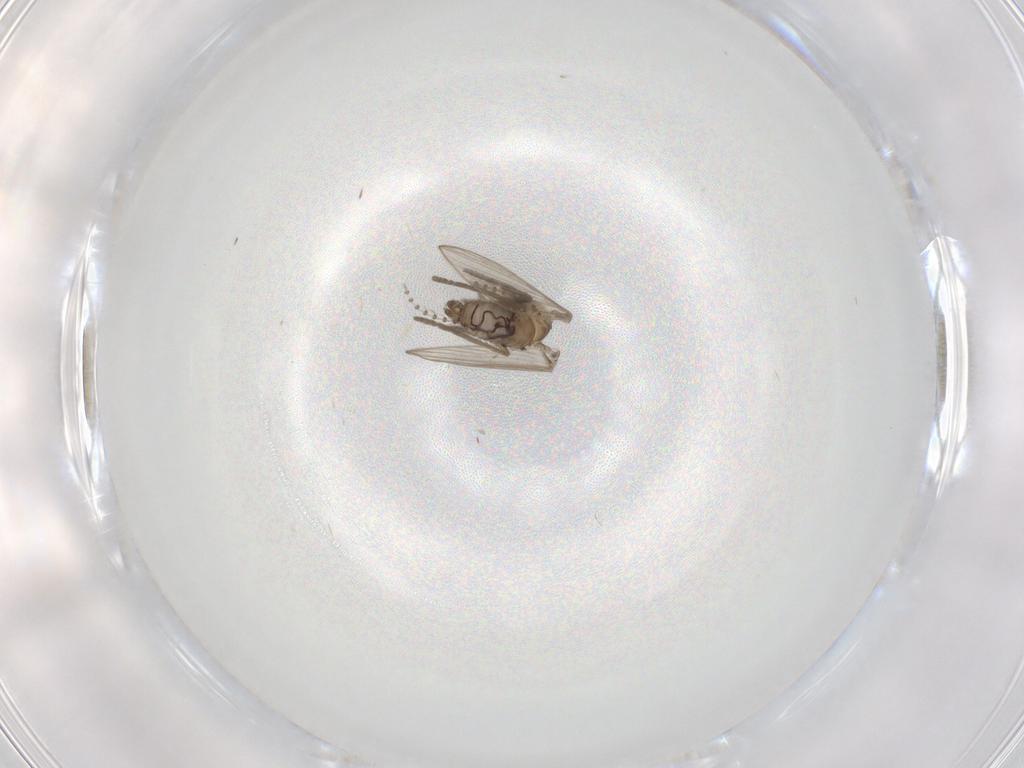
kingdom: Animalia
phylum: Arthropoda
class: Insecta
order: Diptera
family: Psychodidae
